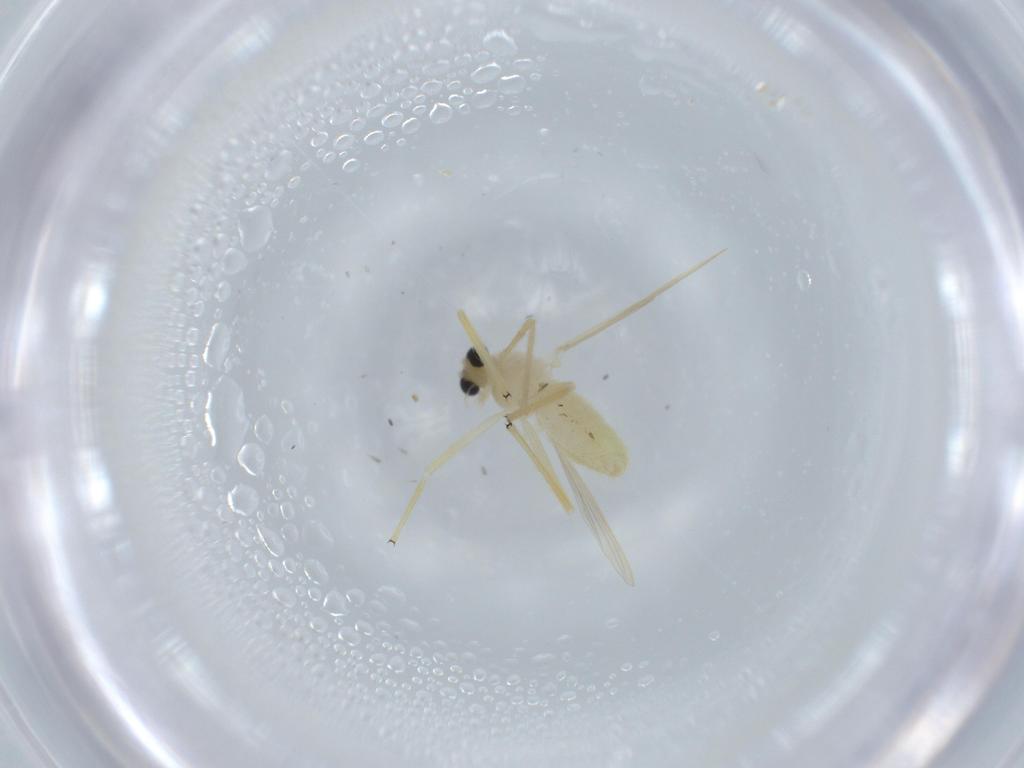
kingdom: Animalia
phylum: Arthropoda
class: Insecta
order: Diptera
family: Chironomidae
